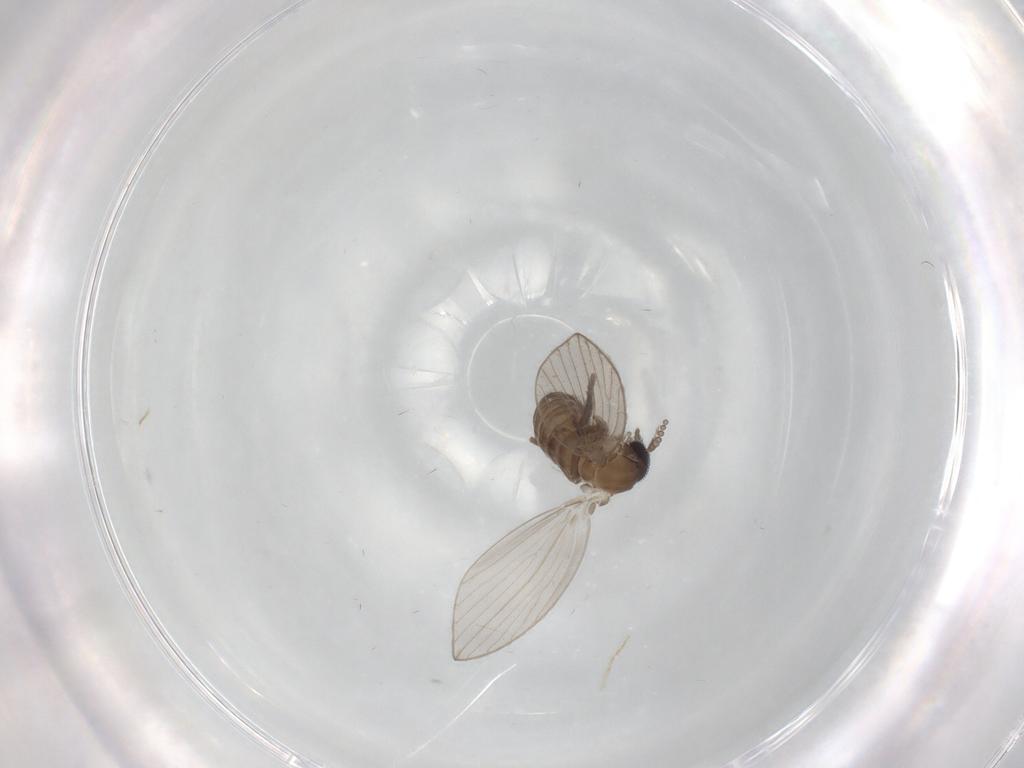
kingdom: Animalia
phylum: Arthropoda
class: Insecta
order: Diptera
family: Psychodidae
